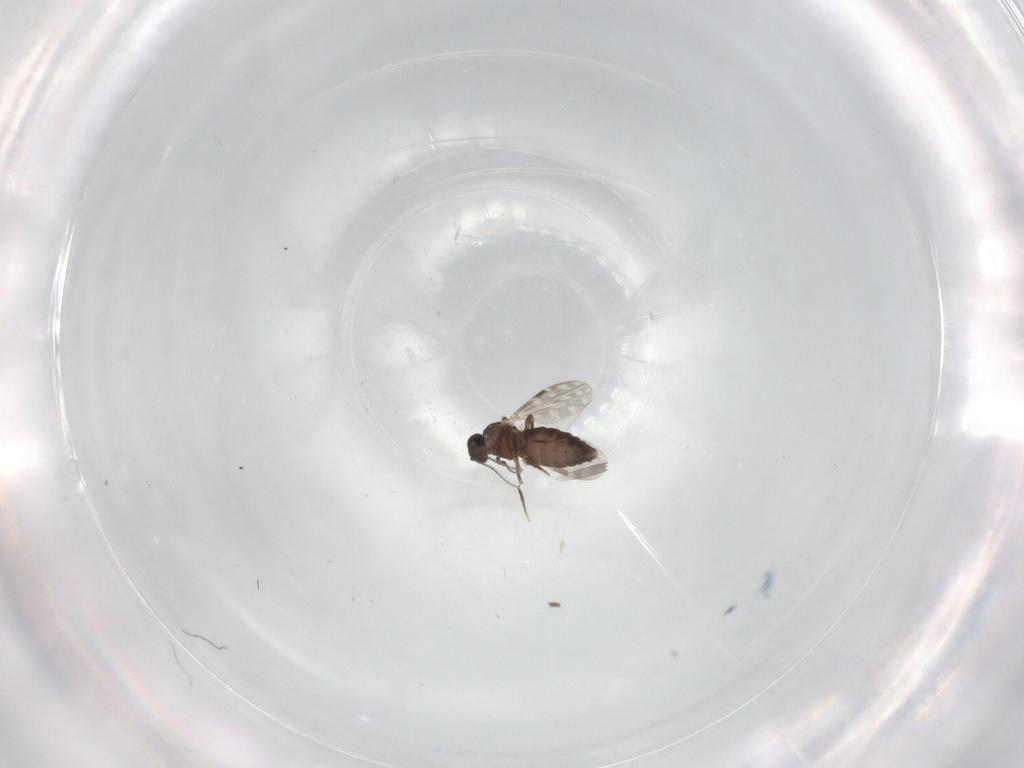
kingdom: Animalia
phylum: Arthropoda
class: Insecta
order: Diptera
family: Ceratopogonidae
